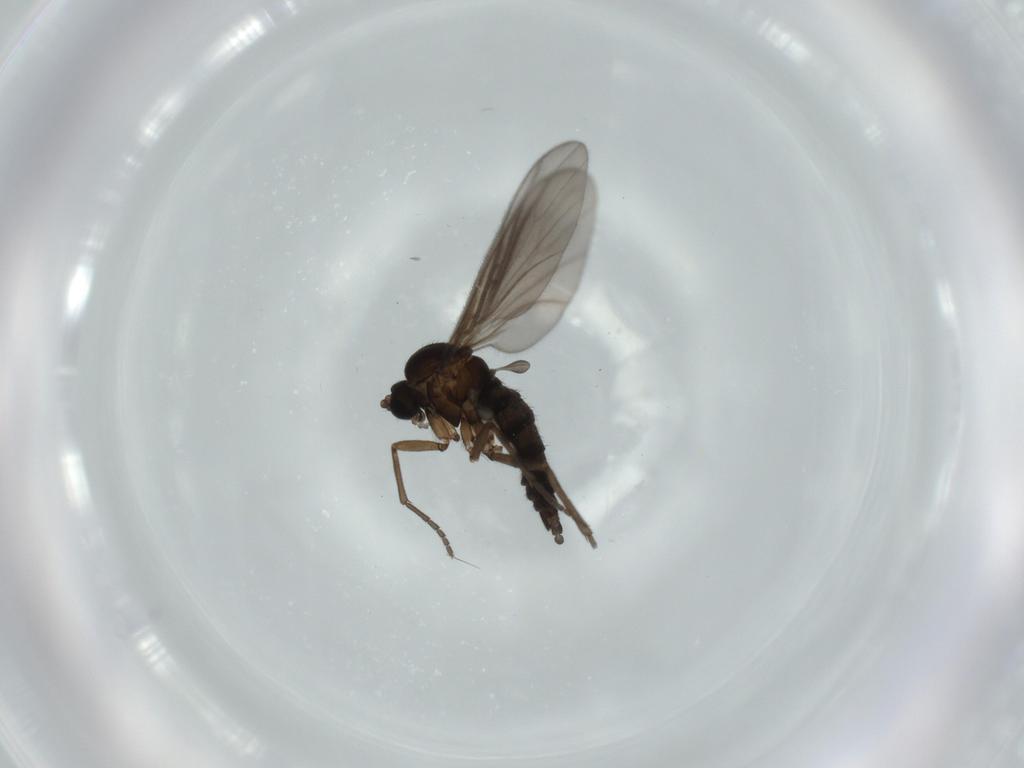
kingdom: Animalia
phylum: Arthropoda
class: Insecta
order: Diptera
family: Sciaridae
